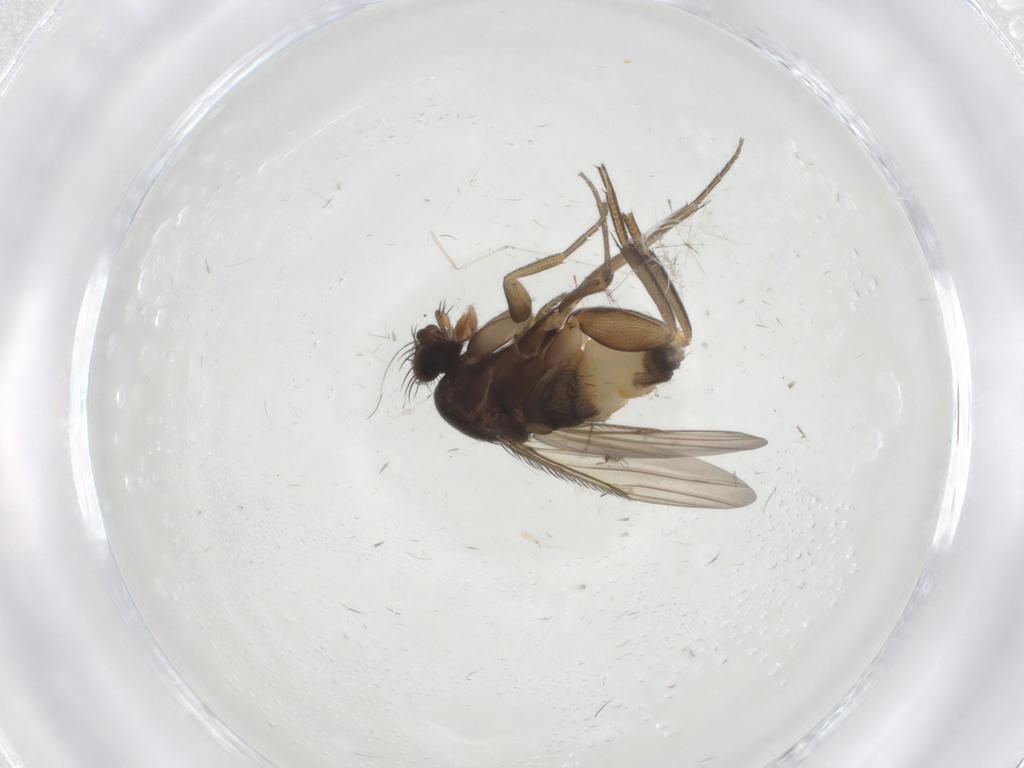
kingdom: Animalia
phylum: Arthropoda
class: Insecta
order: Diptera
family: Phoridae
